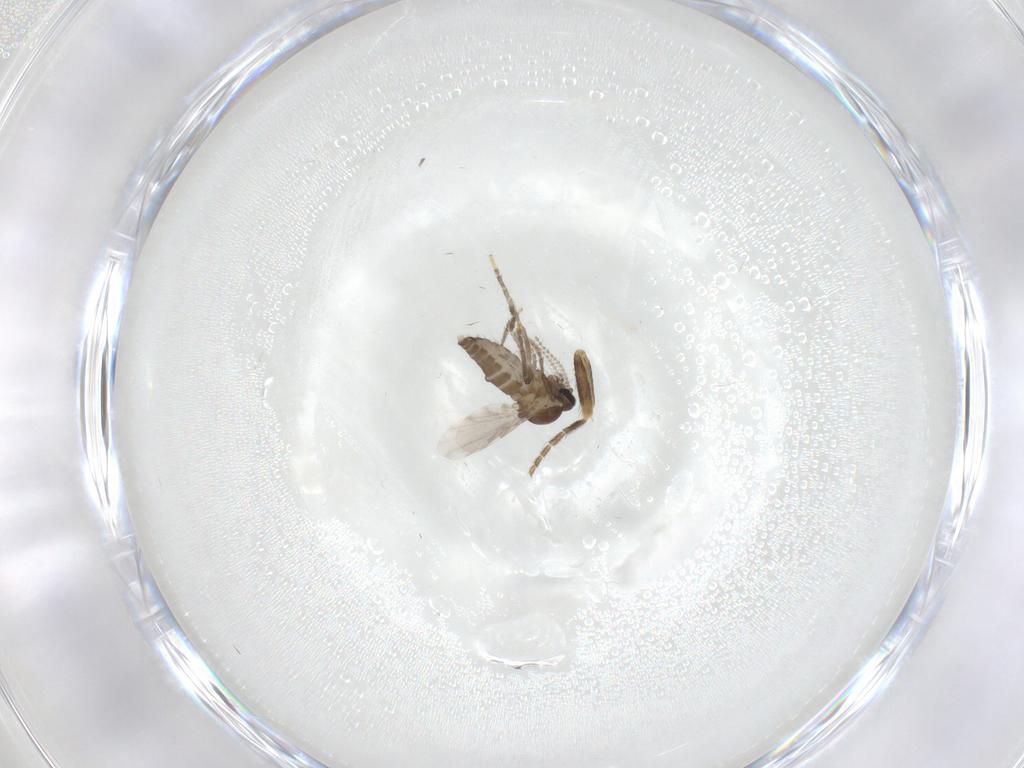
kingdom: Animalia
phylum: Arthropoda
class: Insecta
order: Diptera
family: Ceratopogonidae
